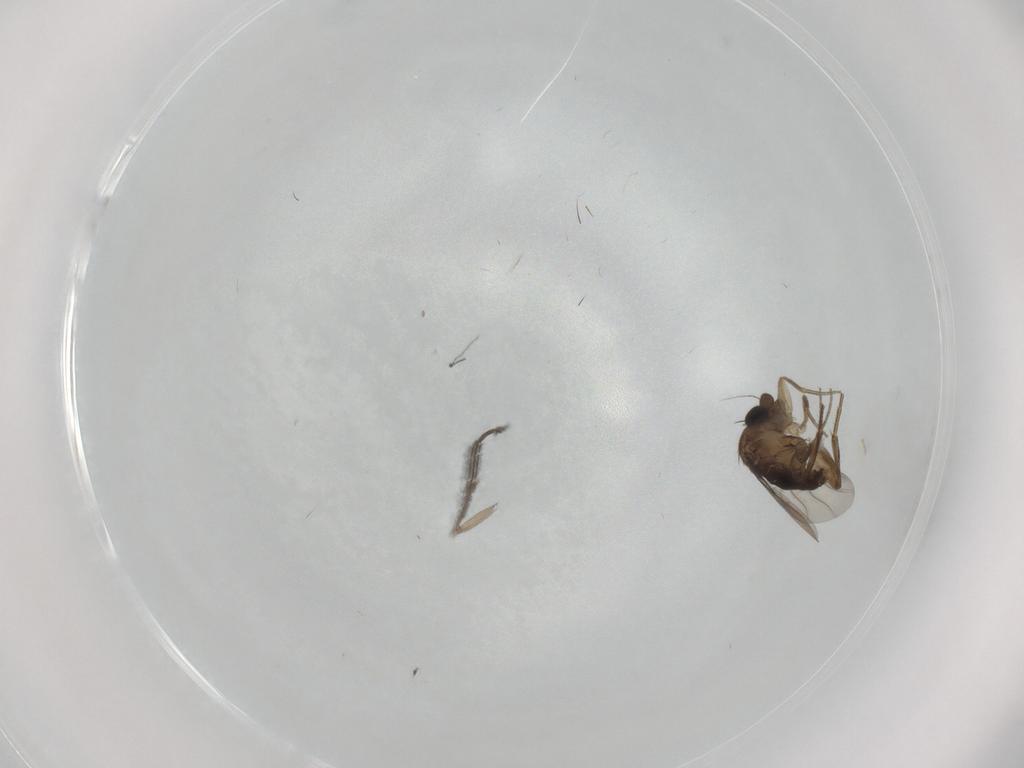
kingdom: Animalia
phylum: Arthropoda
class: Insecta
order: Diptera
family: Phoridae
